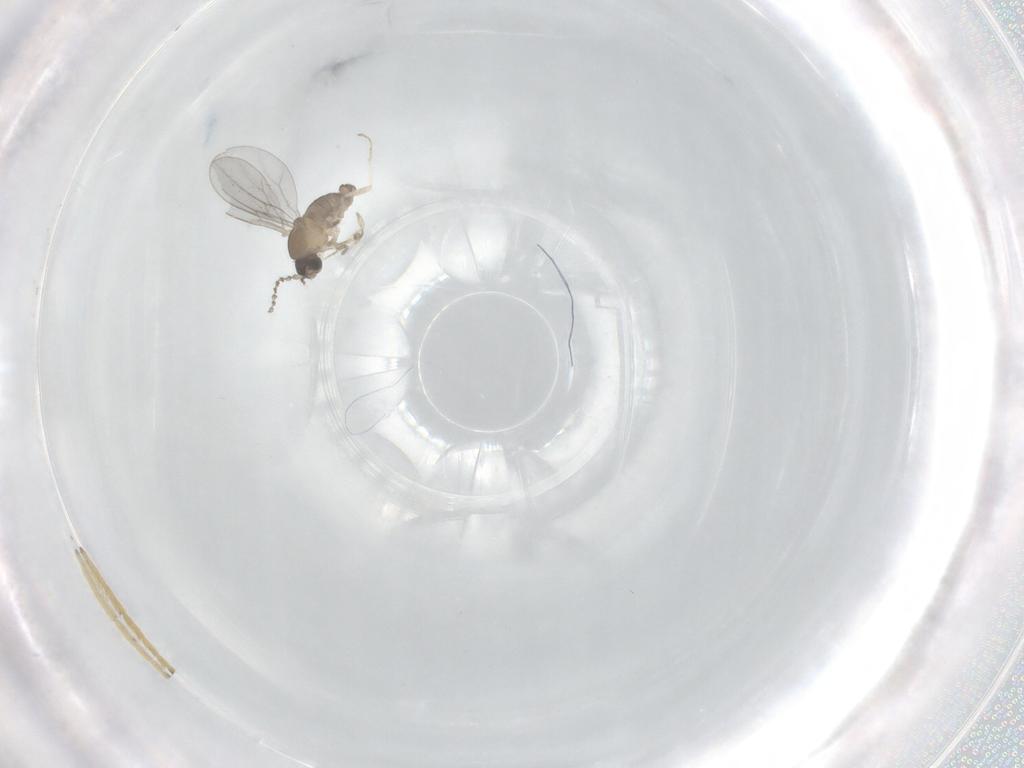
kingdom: Animalia
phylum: Arthropoda
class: Insecta
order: Diptera
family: Cecidomyiidae
